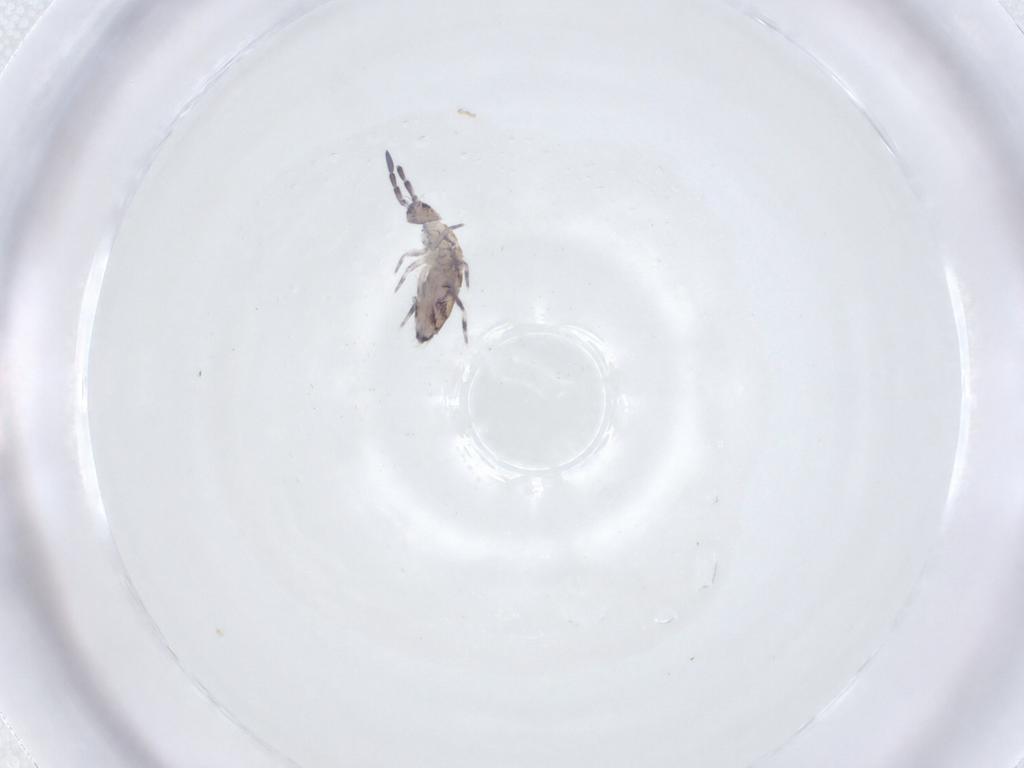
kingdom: Animalia
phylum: Arthropoda
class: Collembola
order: Entomobryomorpha
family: Entomobryidae
